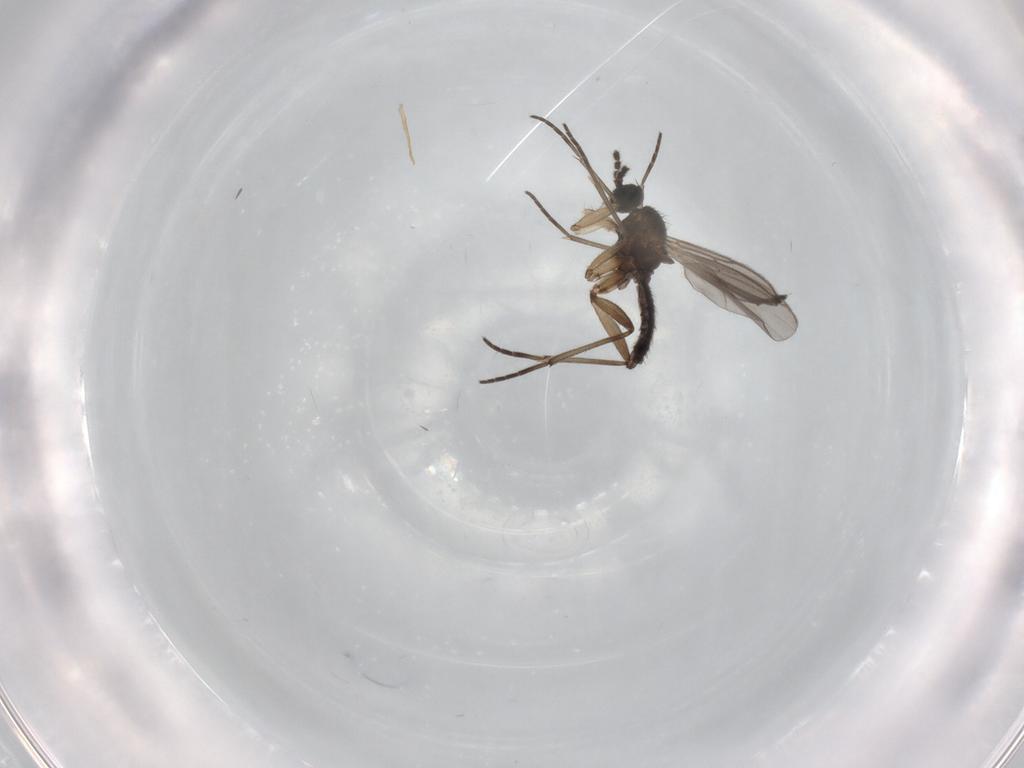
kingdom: Animalia
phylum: Arthropoda
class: Insecta
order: Diptera
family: Sciaridae
